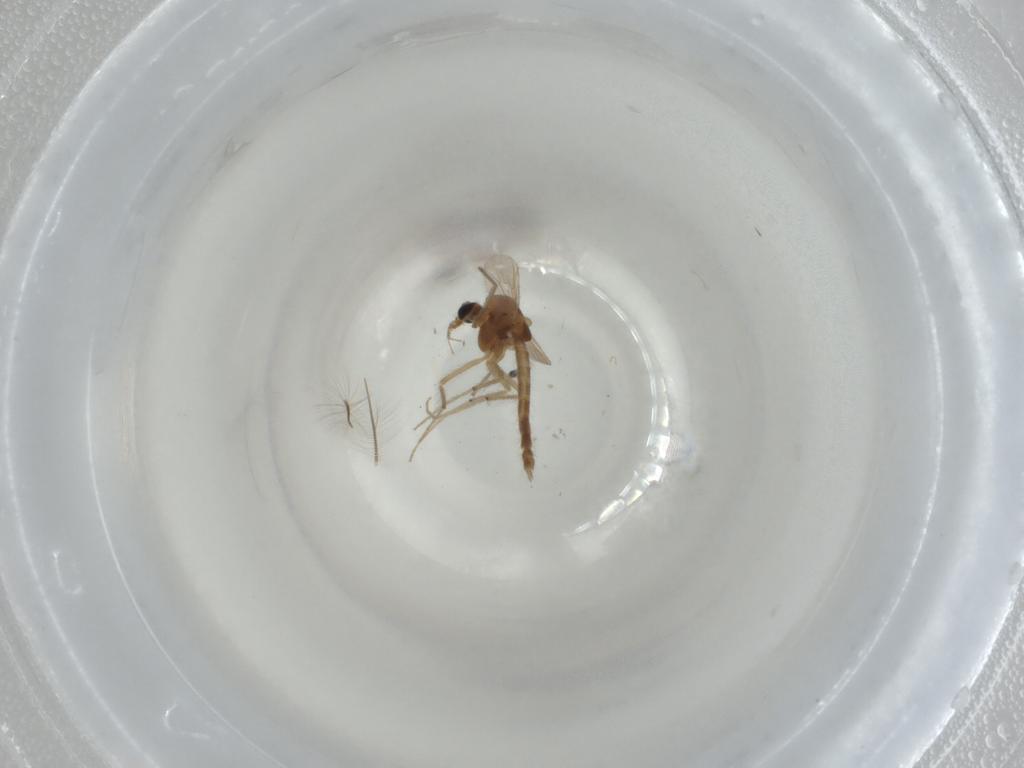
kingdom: Animalia
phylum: Arthropoda
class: Insecta
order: Diptera
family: Chironomidae
